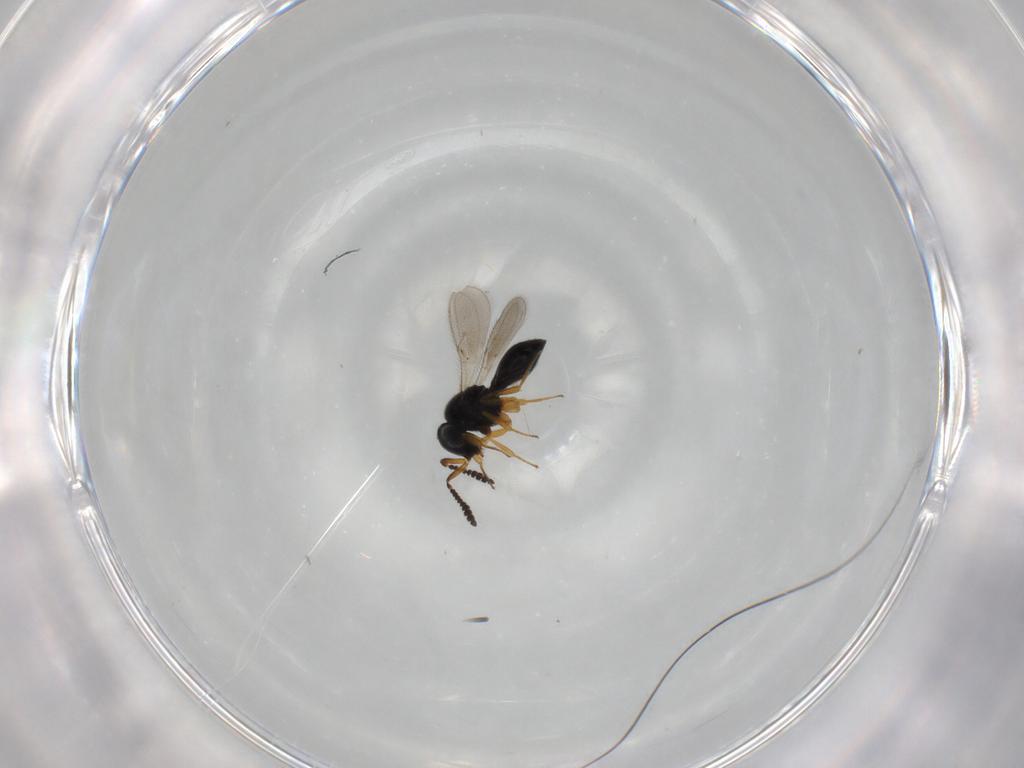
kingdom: Animalia
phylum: Arthropoda
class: Insecta
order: Hymenoptera
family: Scelionidae
